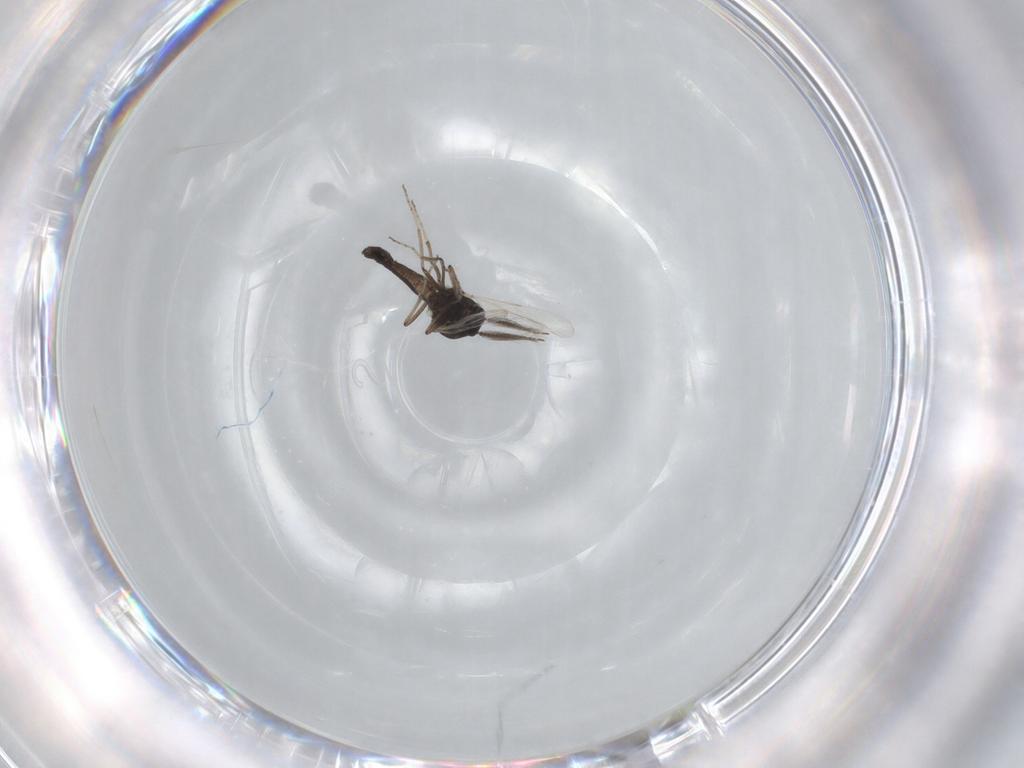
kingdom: Animalia
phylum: Arthropoda
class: Insecta
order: Diptera
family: Ceratopogonidae
